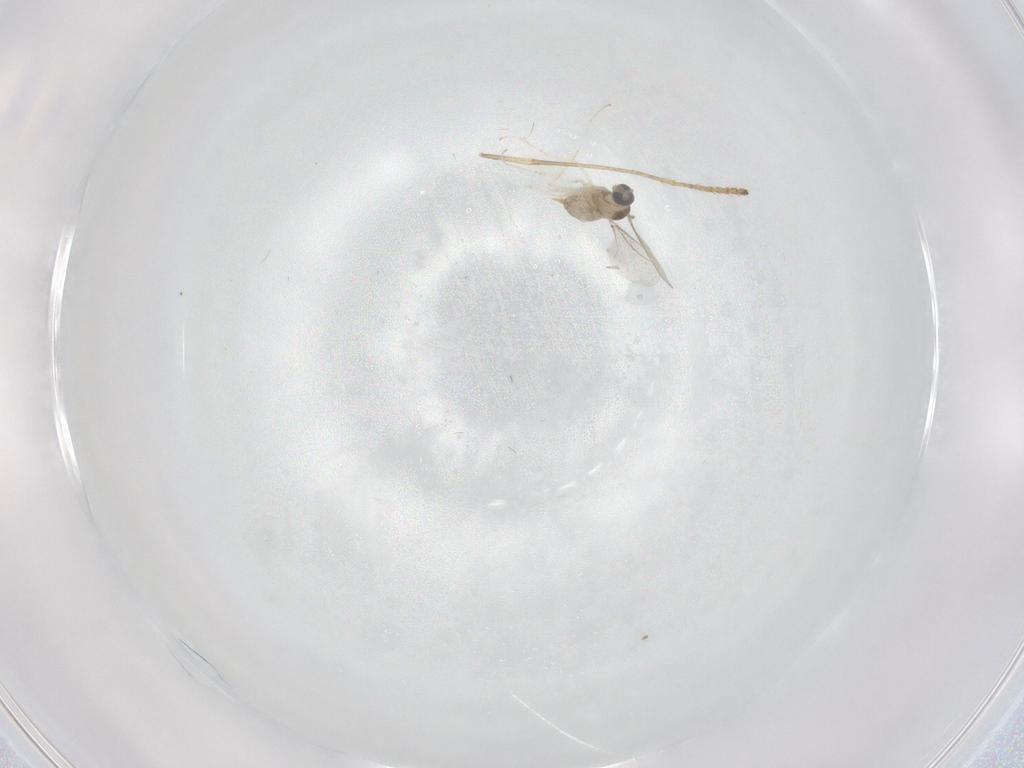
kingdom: Animalia
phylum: Arthropoda
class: Insecta
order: Diptera
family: Cecidomyiidae
